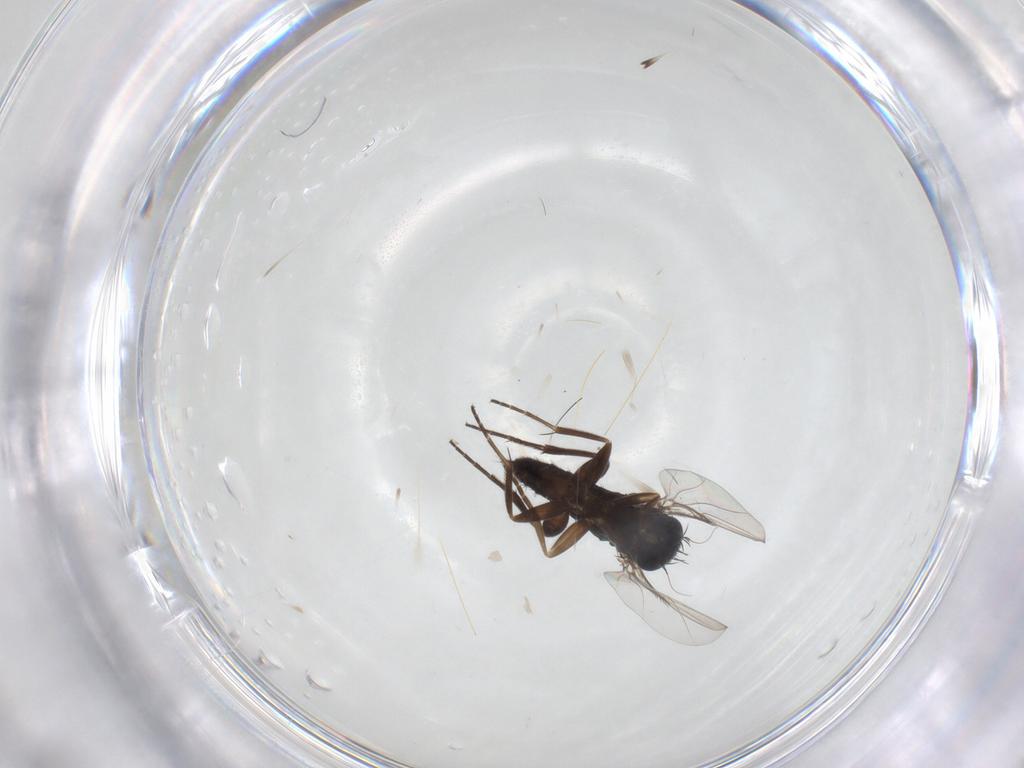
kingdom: Animalia
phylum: Arthropoda
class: Insecta
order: Diptera
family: Phoridae
